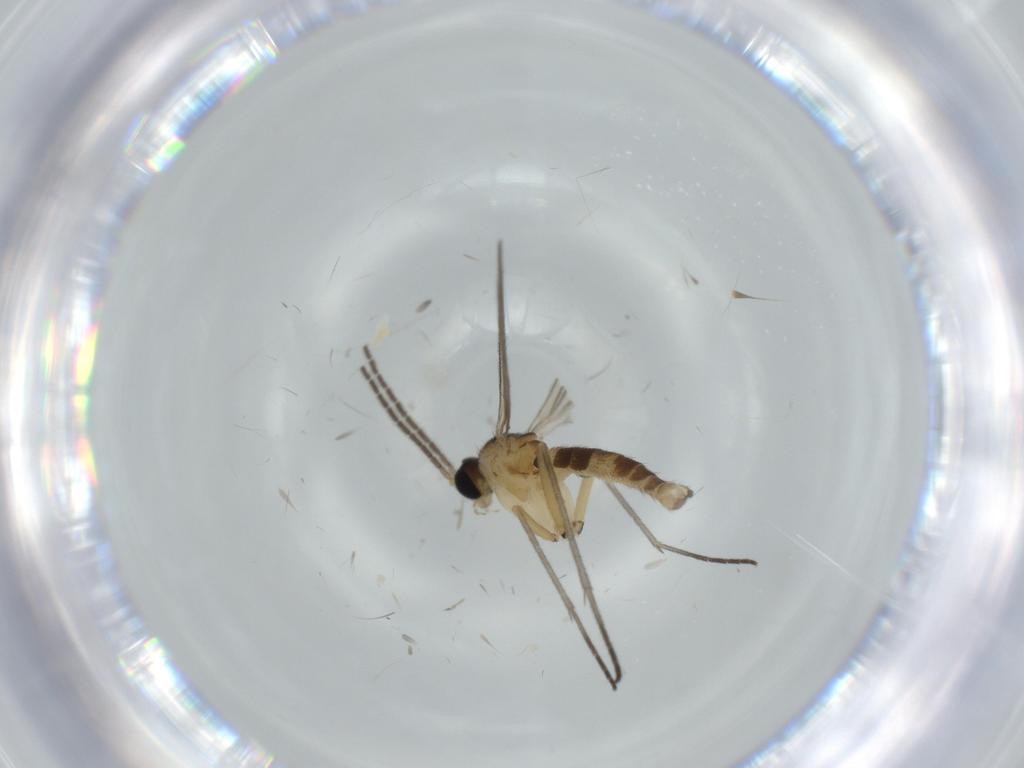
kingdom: Animalia
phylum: Arthropoda
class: Insecta
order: Diptera
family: Sciaridae
